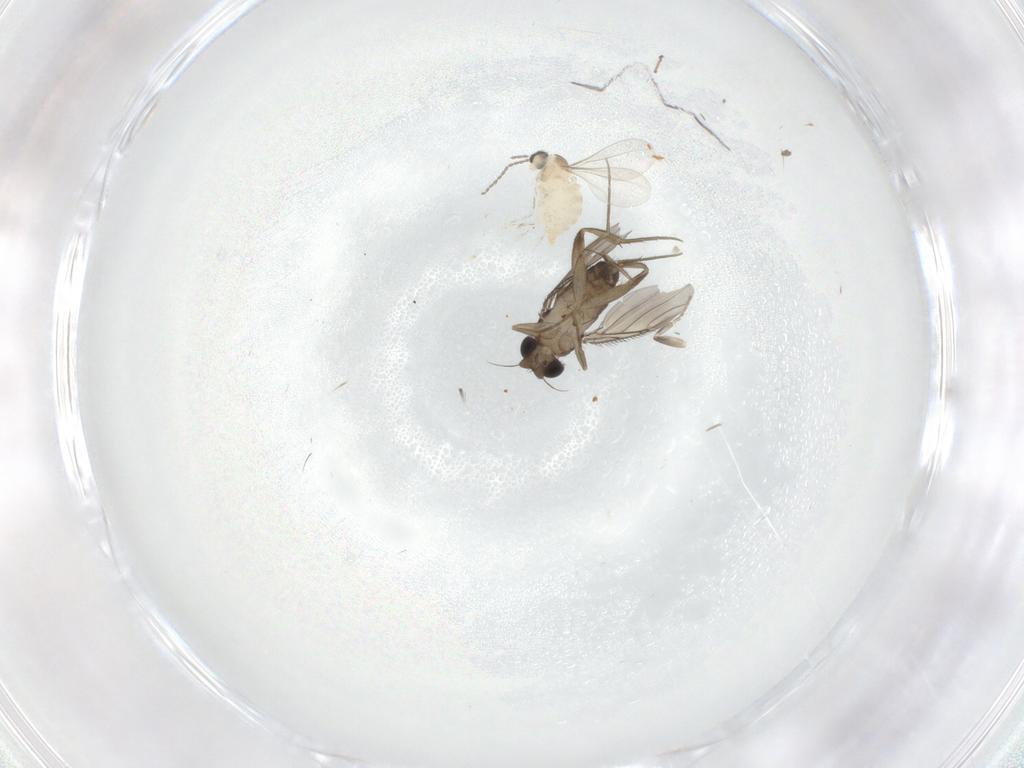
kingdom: Animalia
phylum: Arthropoda
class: Insecta
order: Diptera
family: Phoridae
